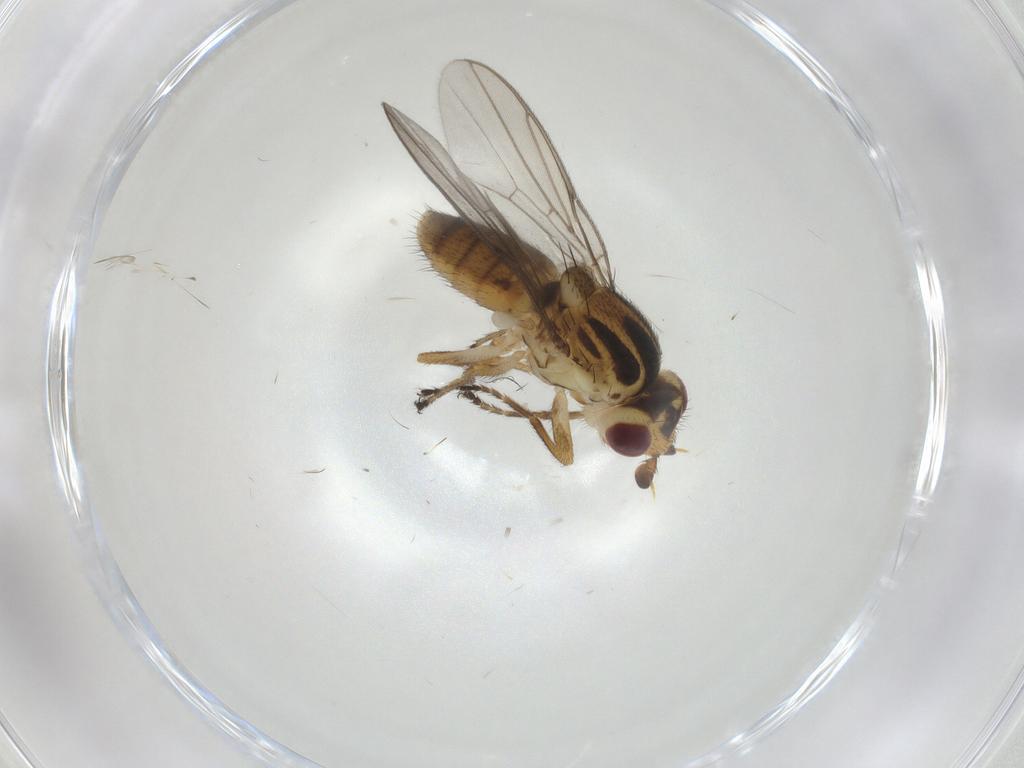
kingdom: Animalia
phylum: Arthropoda
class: Insecta
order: Diptera
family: Chloropidae
